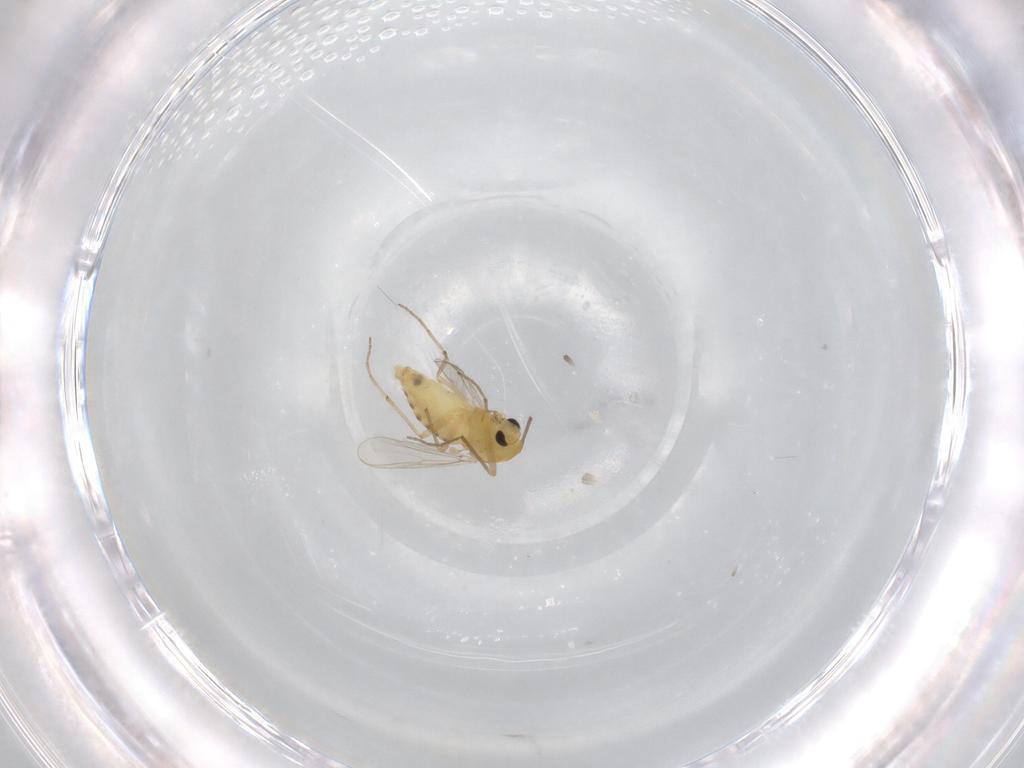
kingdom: Animalia
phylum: Arthropoda
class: Insecta
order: Diptera
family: Chironomidae
